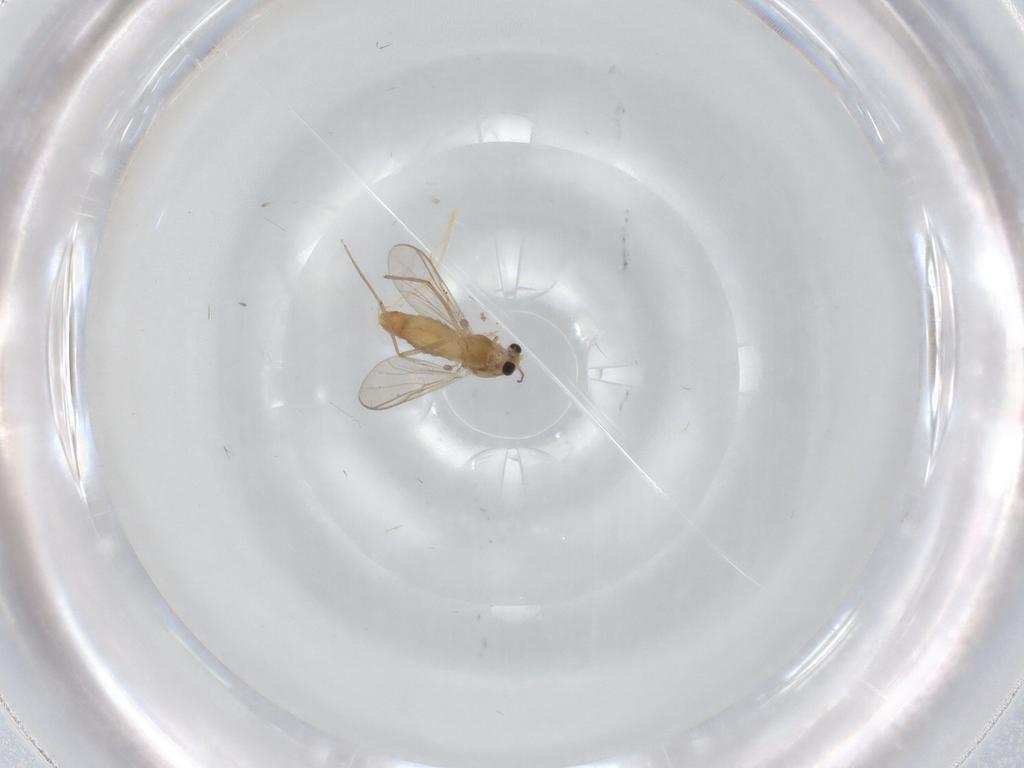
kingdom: Animalia
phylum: Arthropoda
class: Insecta
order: Diptera
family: Chironomidae
